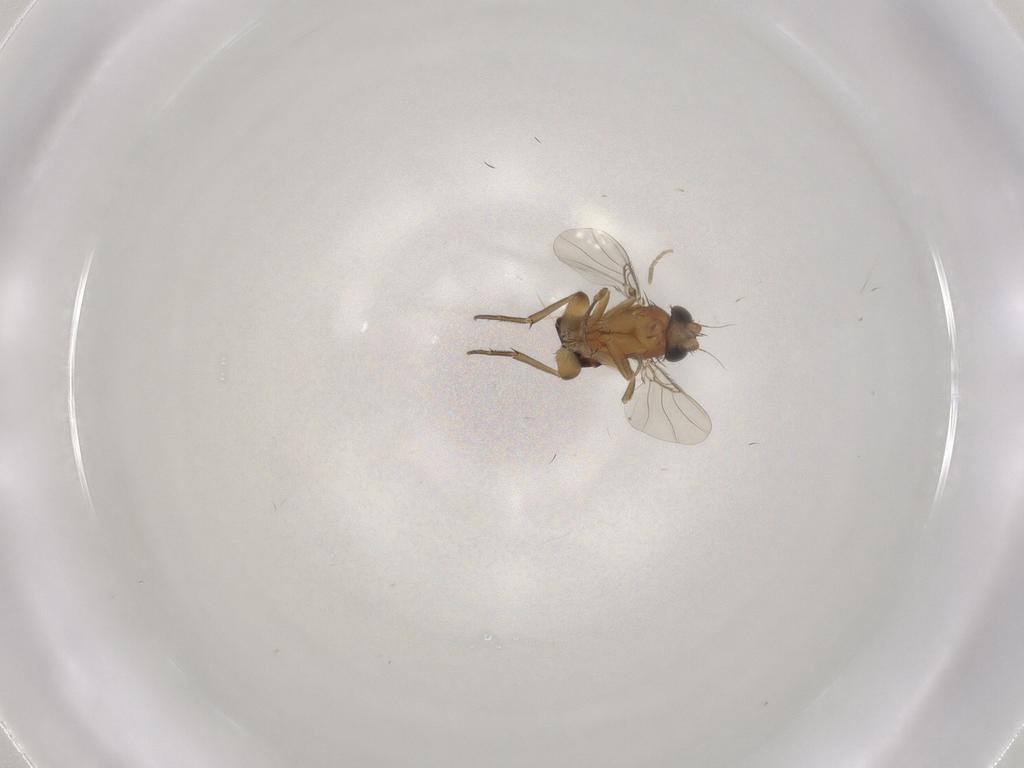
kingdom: Animalia
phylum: Arthropoda
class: Insecta
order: Diptera
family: Phoridae
